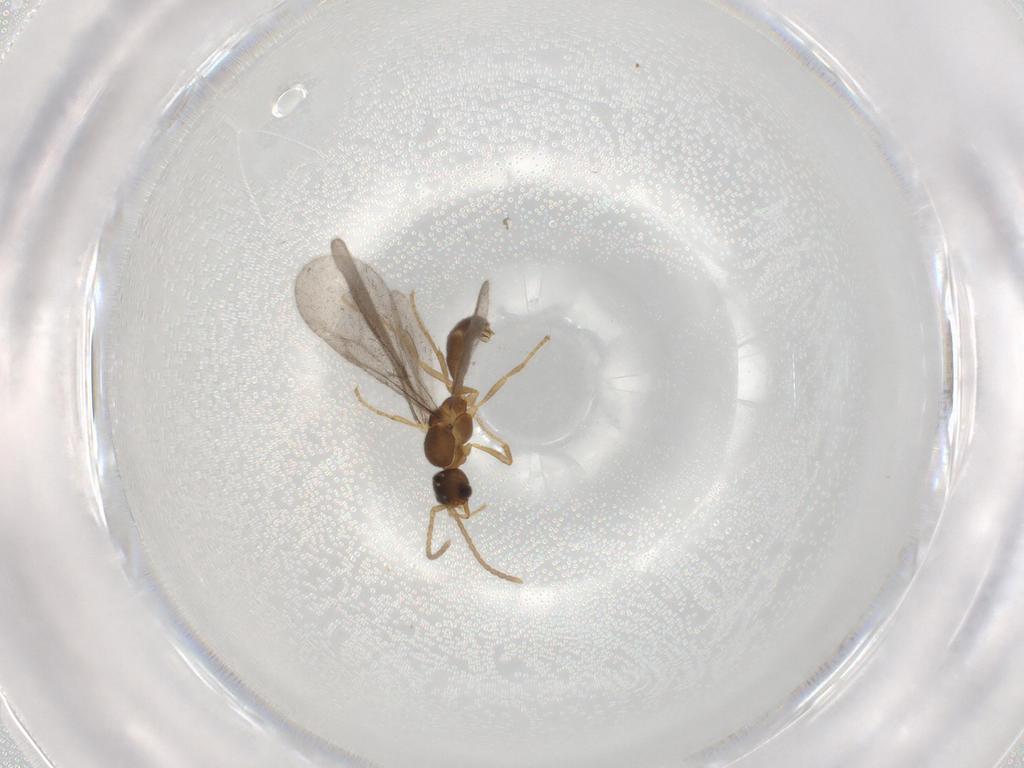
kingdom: Animalia
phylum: Arthropoda
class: Insecta
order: Hymenoptera
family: Formicidae
